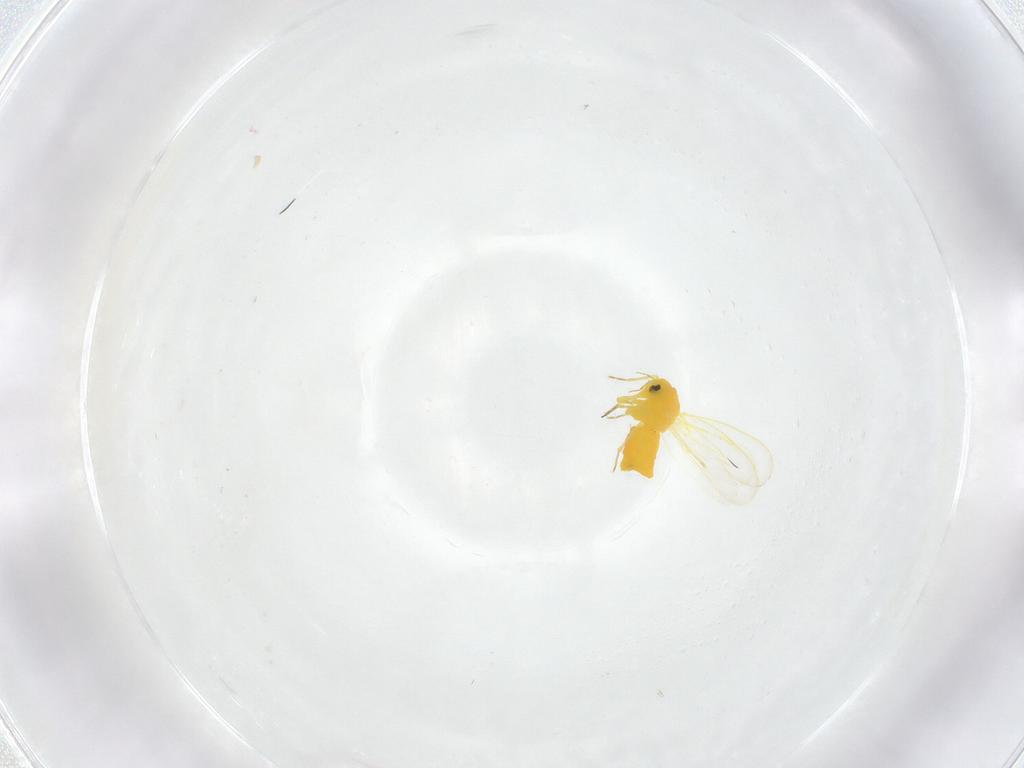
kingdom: Animalia
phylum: Arthropoda
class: Insecta
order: Hemiptera
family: Aleyrodidae
